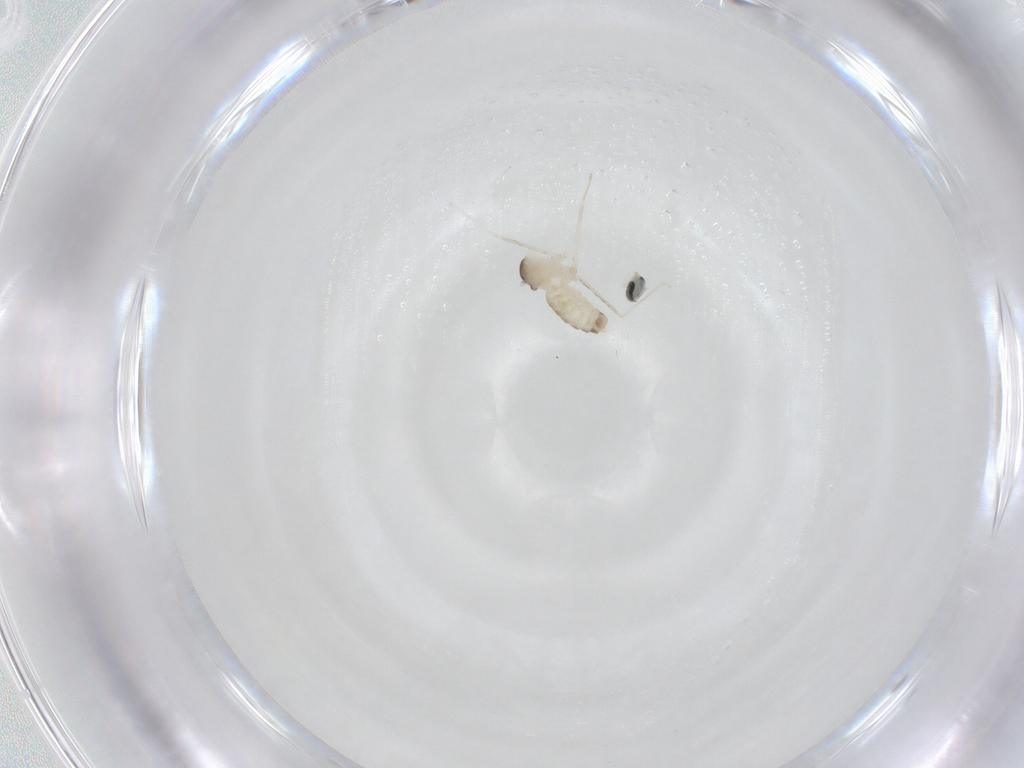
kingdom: Animalia
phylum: Arthropoda
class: Insecta
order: Diptera
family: Cecidomyiidae
